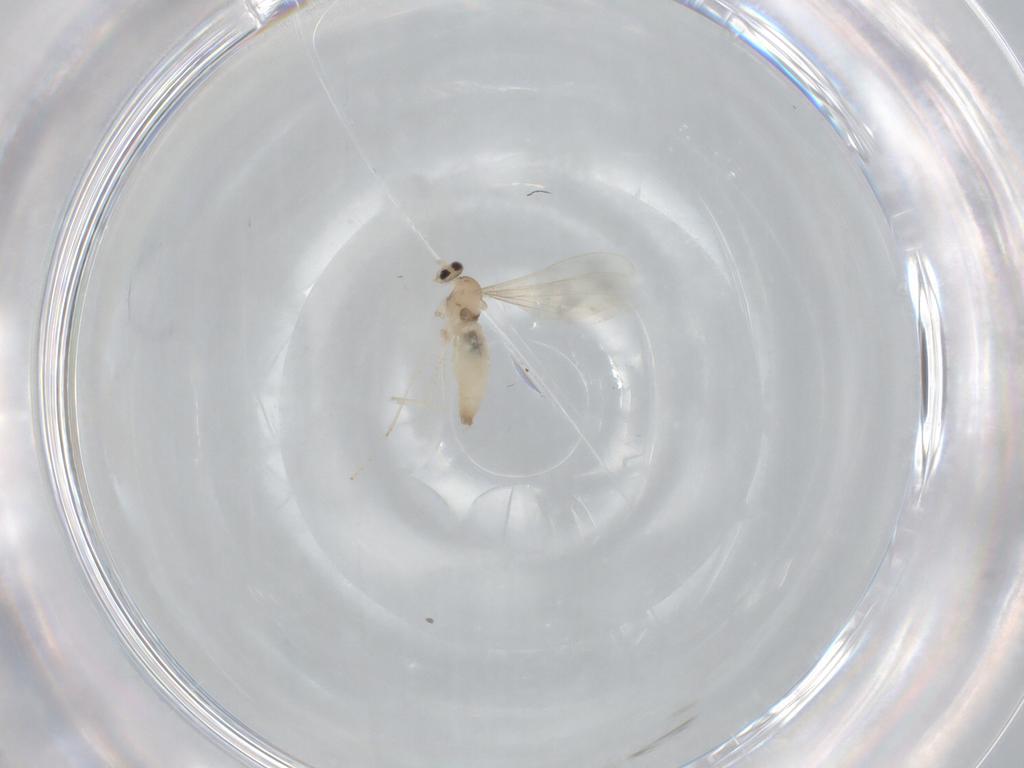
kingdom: Animalia
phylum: Arthropoda
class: Insecta
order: Diptera
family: Cecidomyiidae
